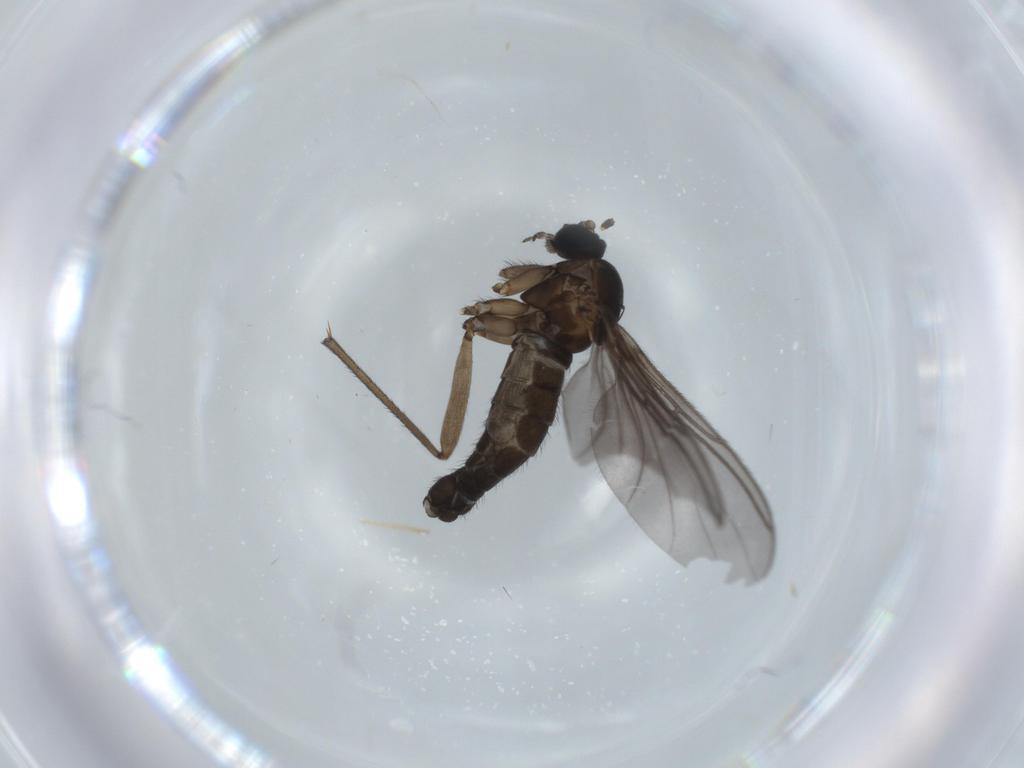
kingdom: Animalia
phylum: Arthropoda
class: Insecta
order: Diptera
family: Sciaridae
